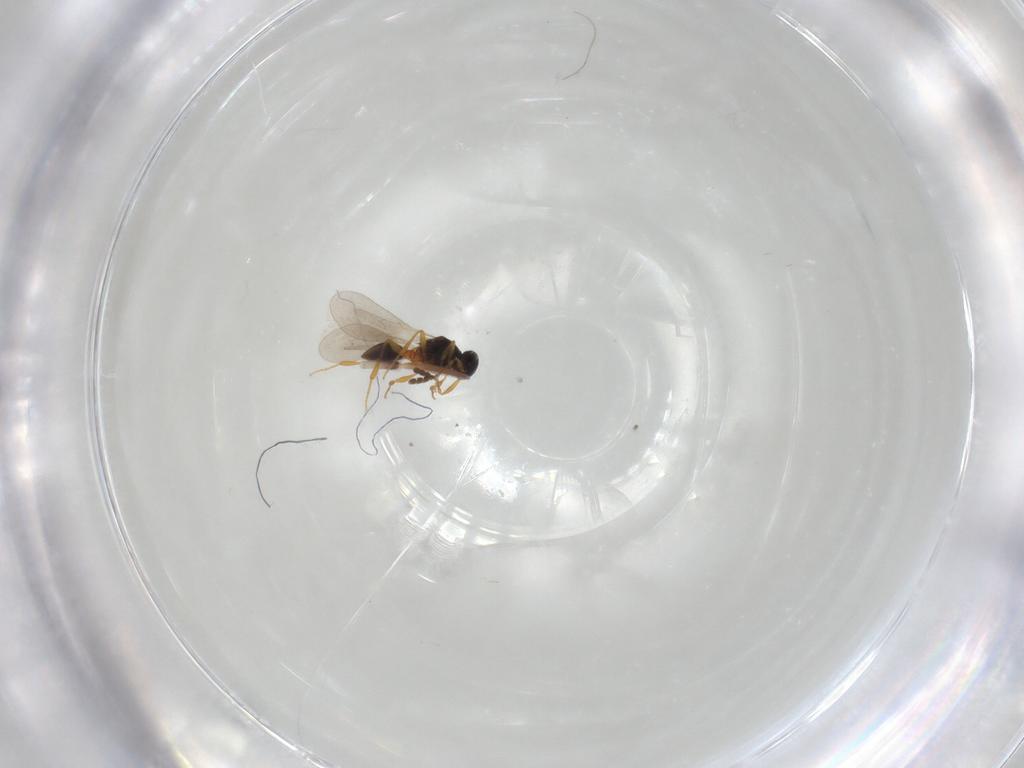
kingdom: Animalia
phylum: Arthropoda
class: Insecta
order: Hymenoptera
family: Platygastridae
